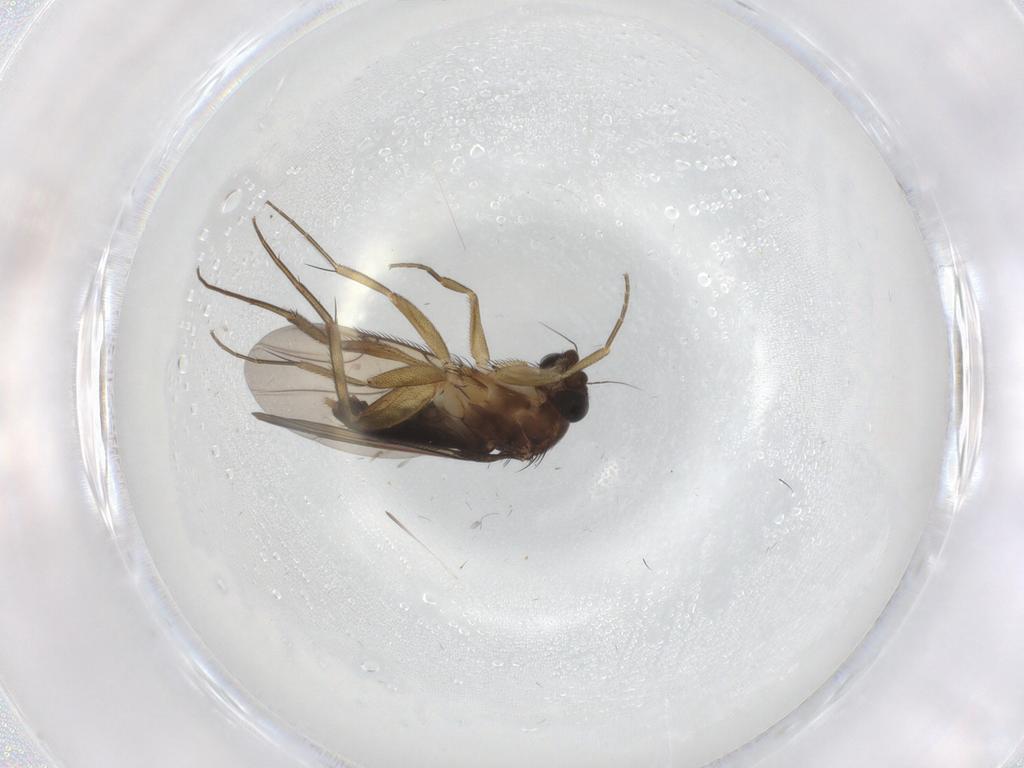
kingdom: Animalia
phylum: Arthropoda
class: Insecta
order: Diptera
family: Phoridae
